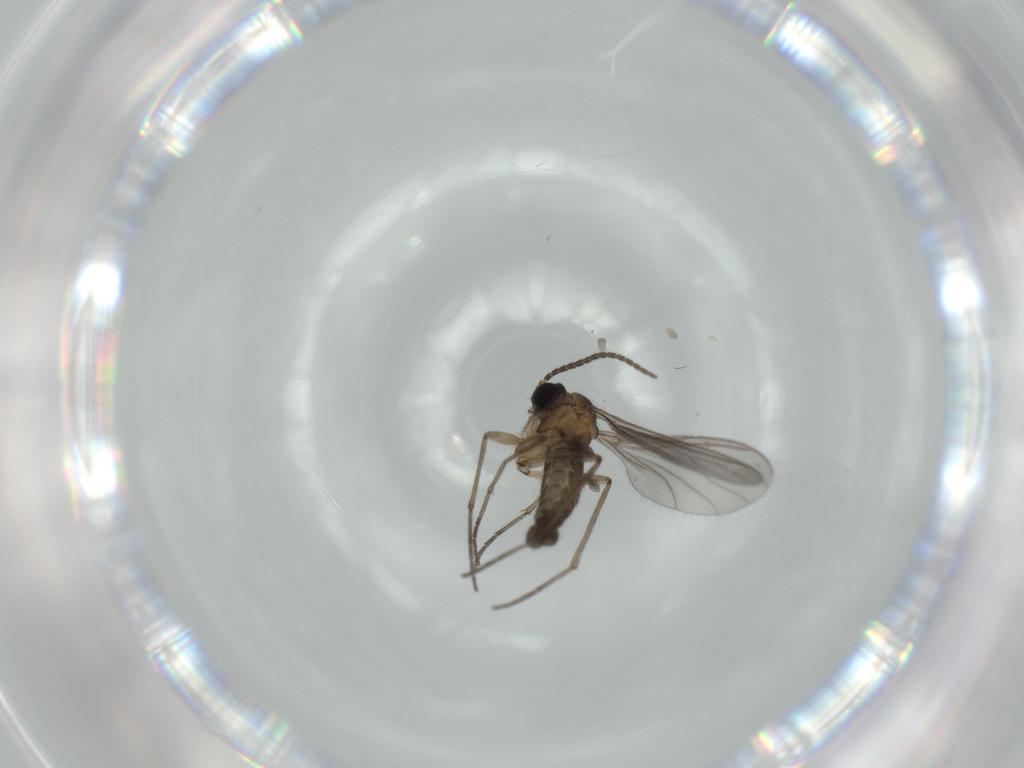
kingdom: Animalia
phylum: Arthropoda
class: Insecta
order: Diptera
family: Sciaridae
